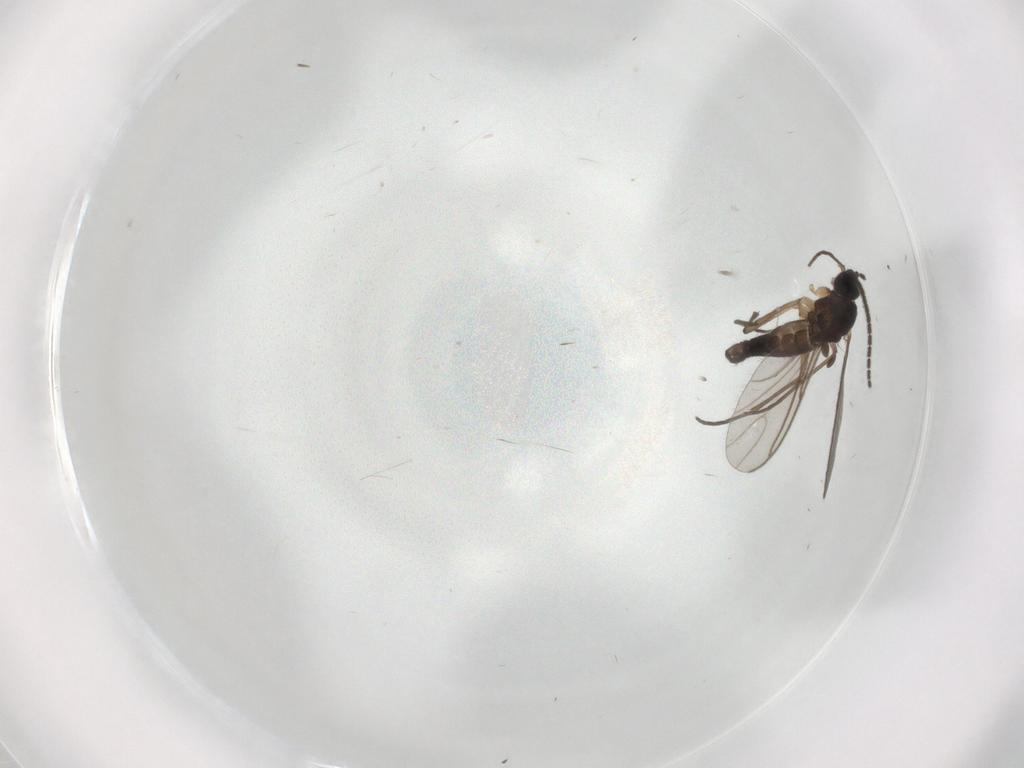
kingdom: Animalia
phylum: Arthropoda
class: Insecta
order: Diptera
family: Sciaridae
